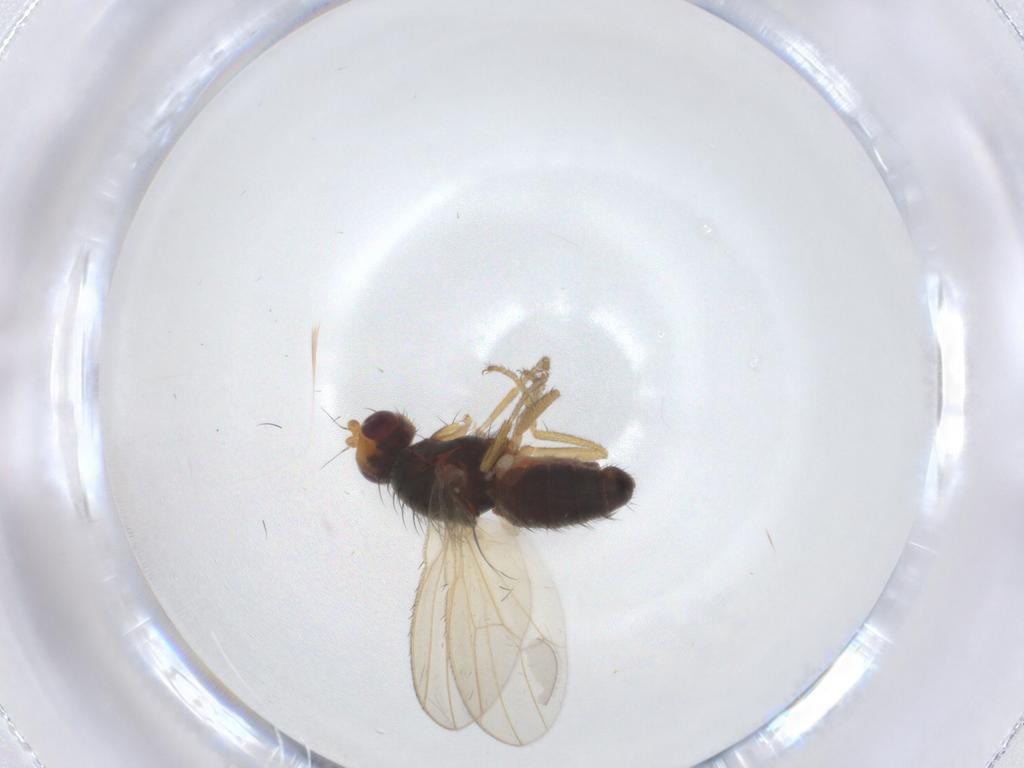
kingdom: Animalia
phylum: Arthropoda
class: Insecta
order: Diptera
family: Heleomyzidae
